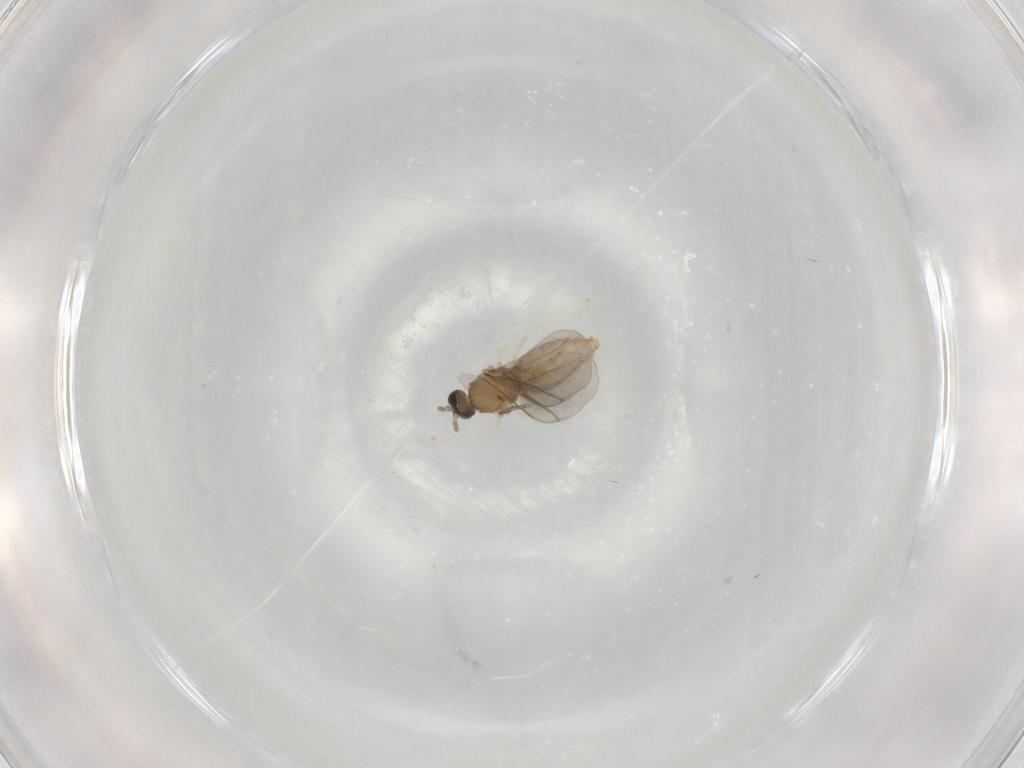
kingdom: Animalia
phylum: Arthropoda
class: Insecta
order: Diptera
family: Cecidomyiidae
